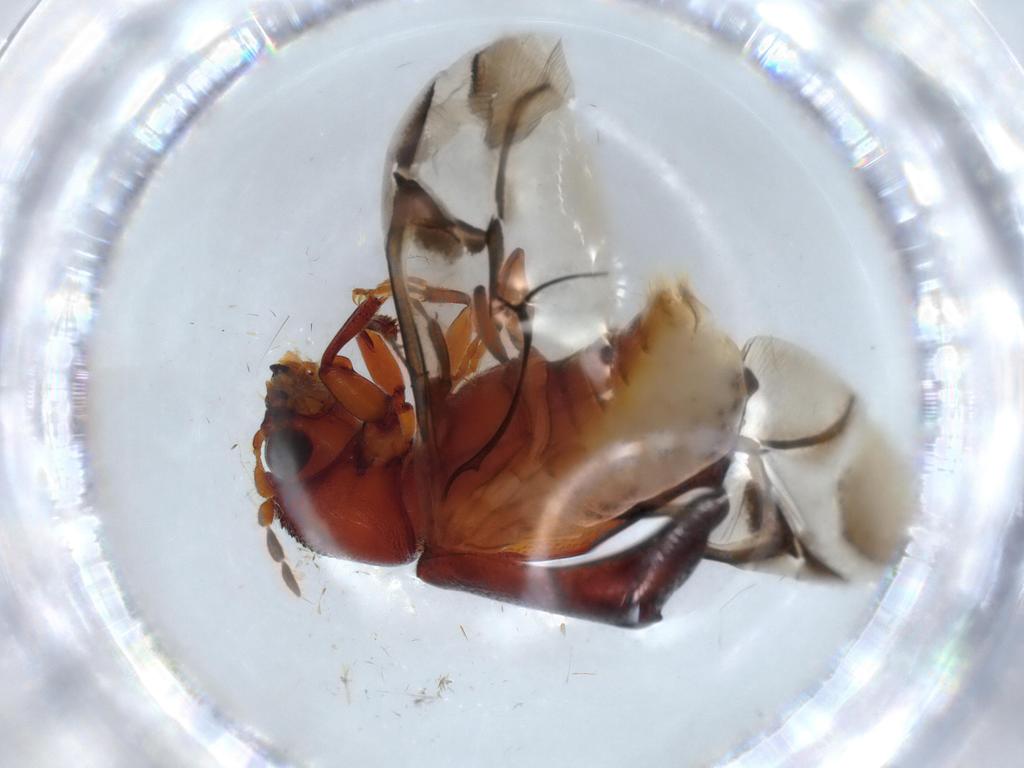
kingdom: Animalia
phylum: Arthropoda
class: Insecta
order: Coleoptera
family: Bostrichidae
